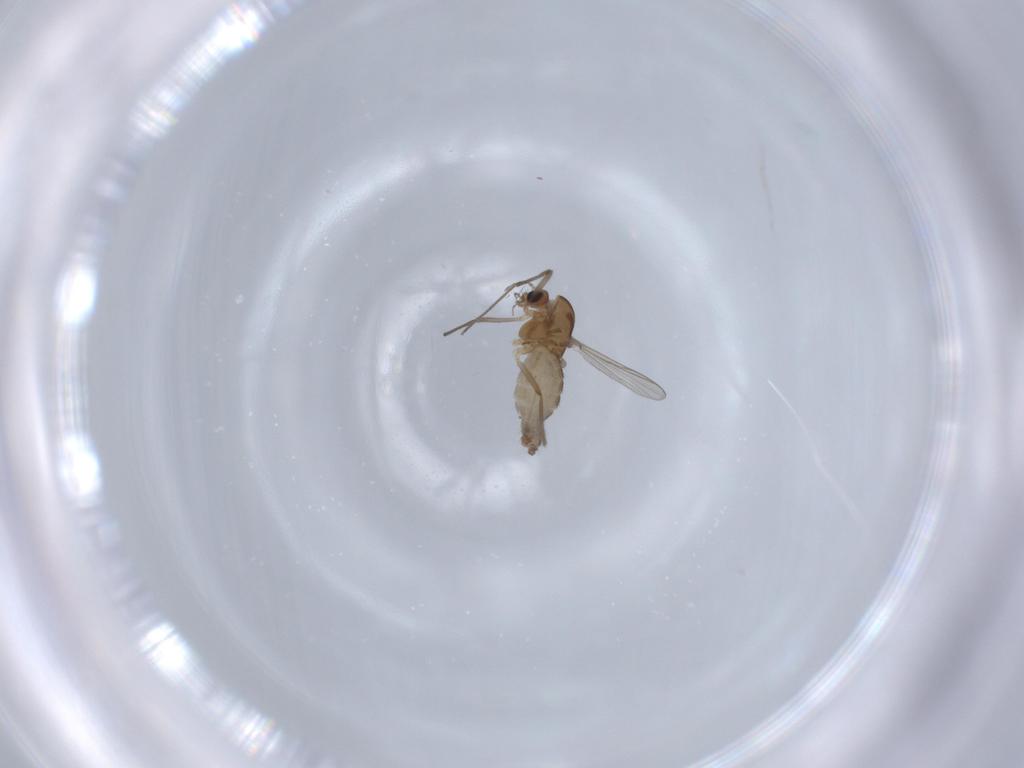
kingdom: Animalia
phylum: Arthropoda
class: Insecta
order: Diptera
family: Chironomidae
